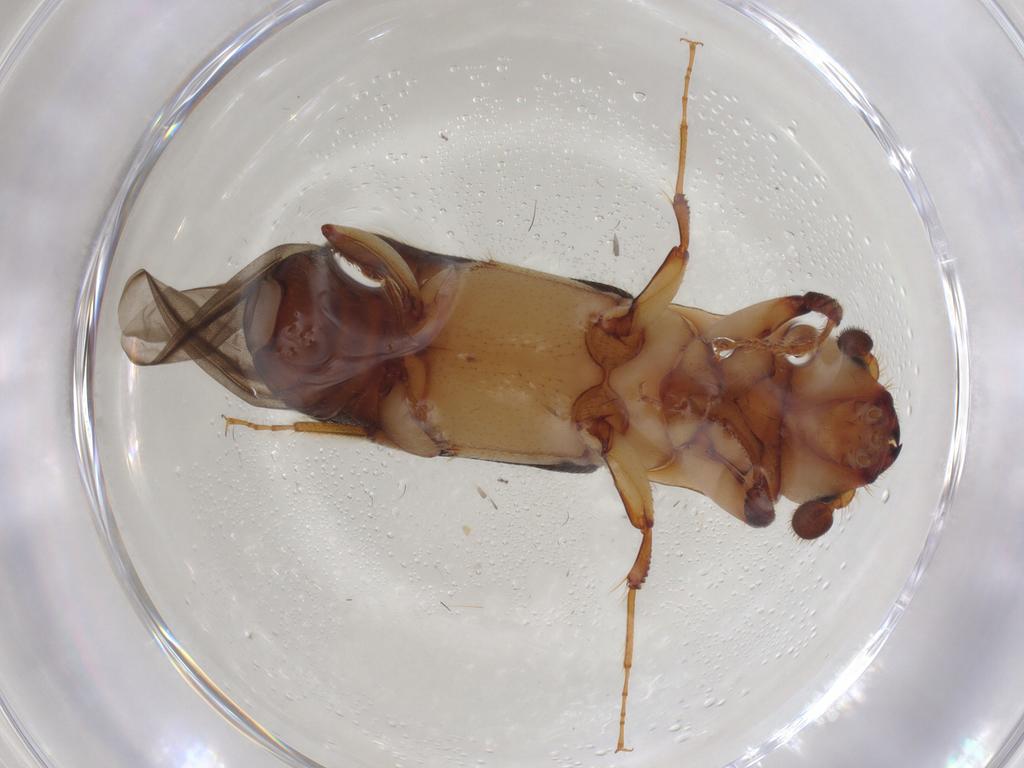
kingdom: Animalia
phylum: Arthropoda
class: Insecta
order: Coleoptera
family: Curculionidae
